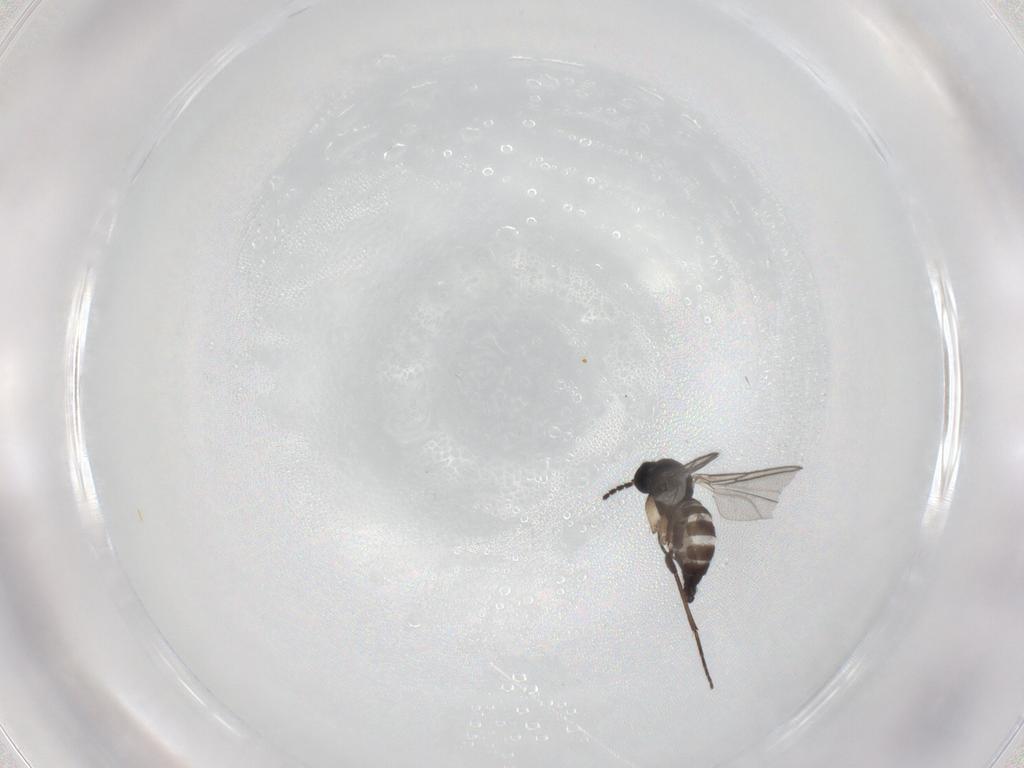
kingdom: Animalia
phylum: Arthropoda
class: Insecta
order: Diptera
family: Sciaridae
